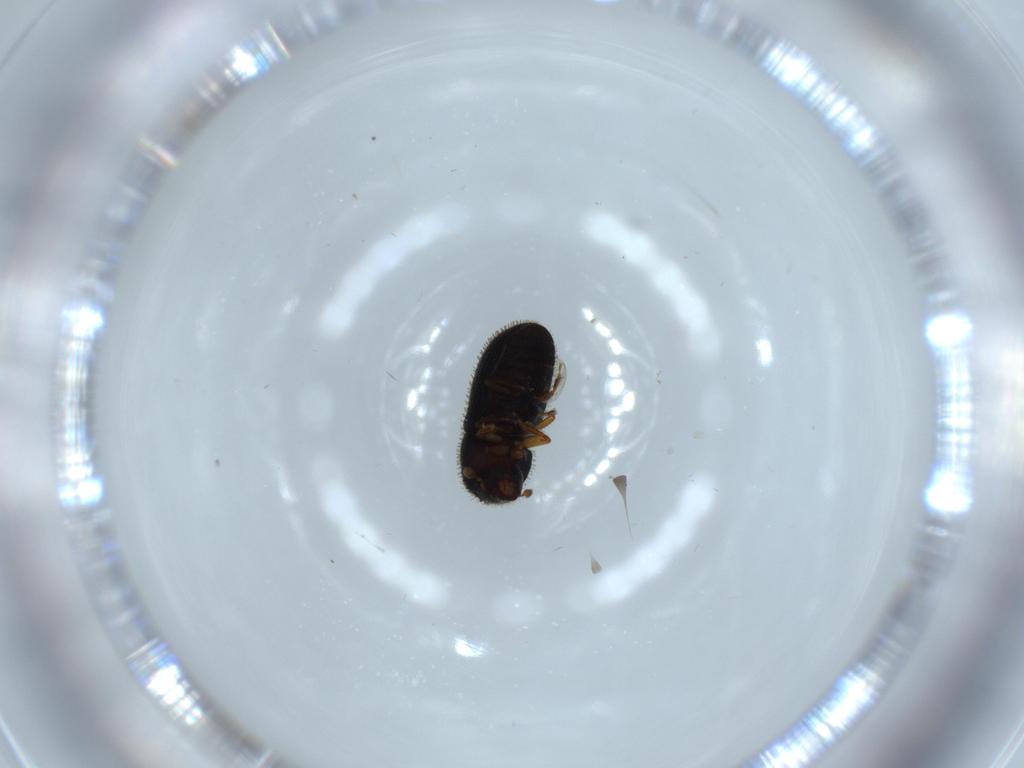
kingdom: Animalia
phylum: Arthropoda
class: Insecta
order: Coleoptera
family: Curculionidae
